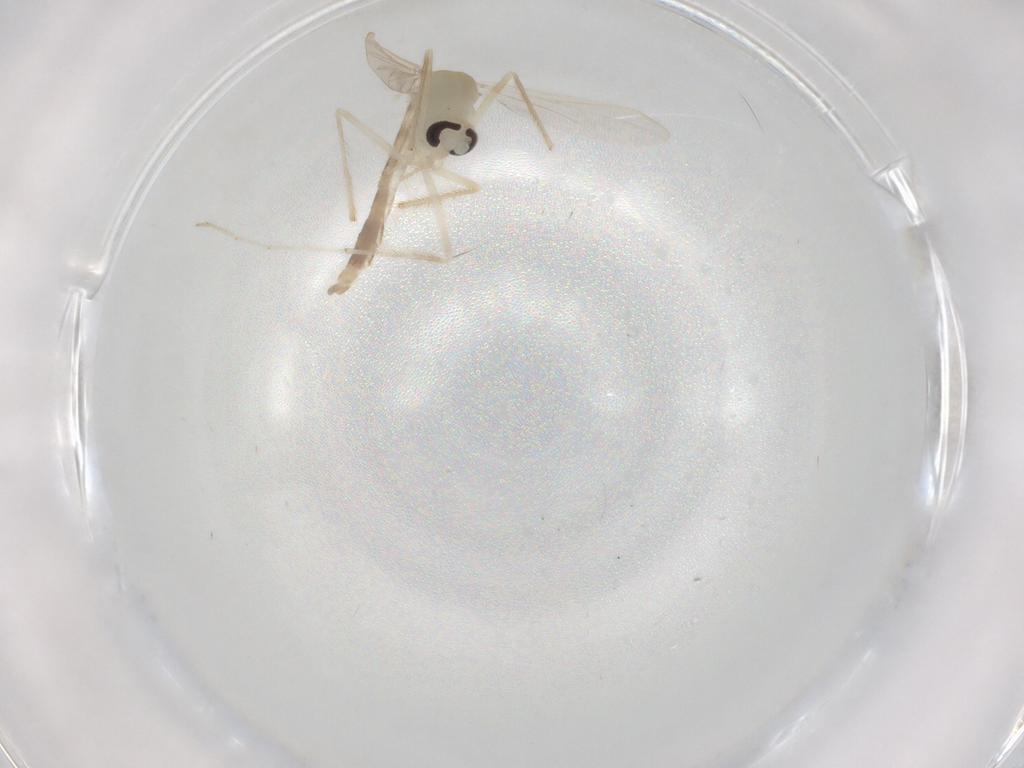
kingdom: Animalia
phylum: Arthropoda
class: Insecta
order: Diptera
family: Chironomidae
